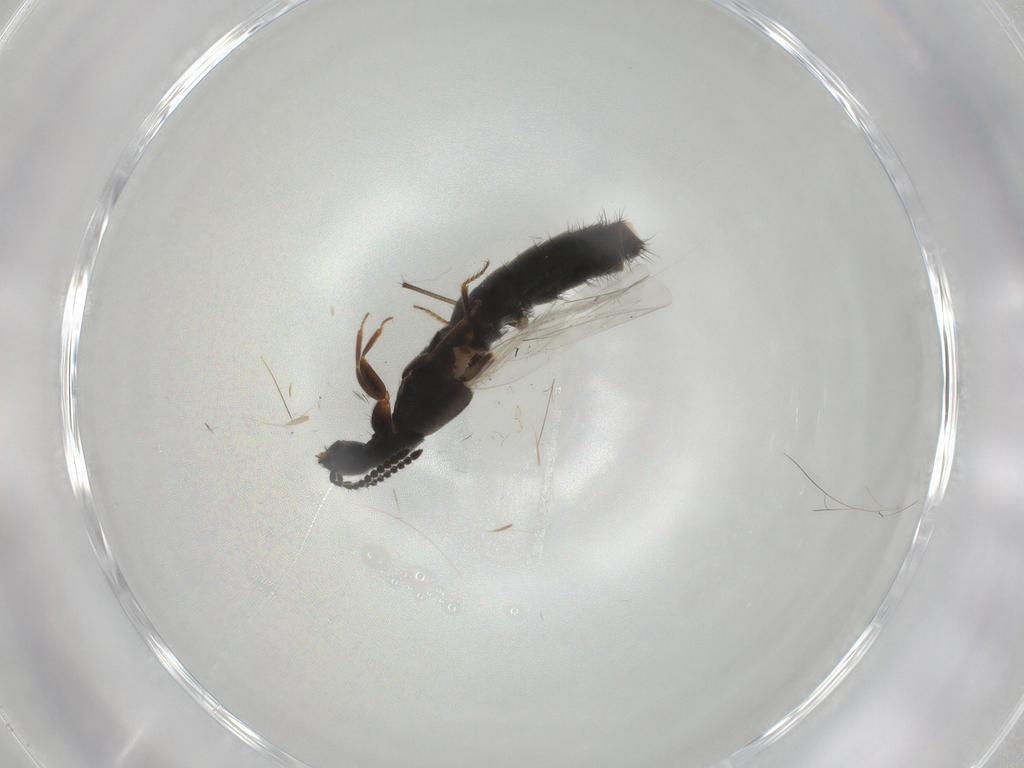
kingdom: Animalia
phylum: Arthropoda
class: Insecta
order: Coleoptera
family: Staphylinidae
